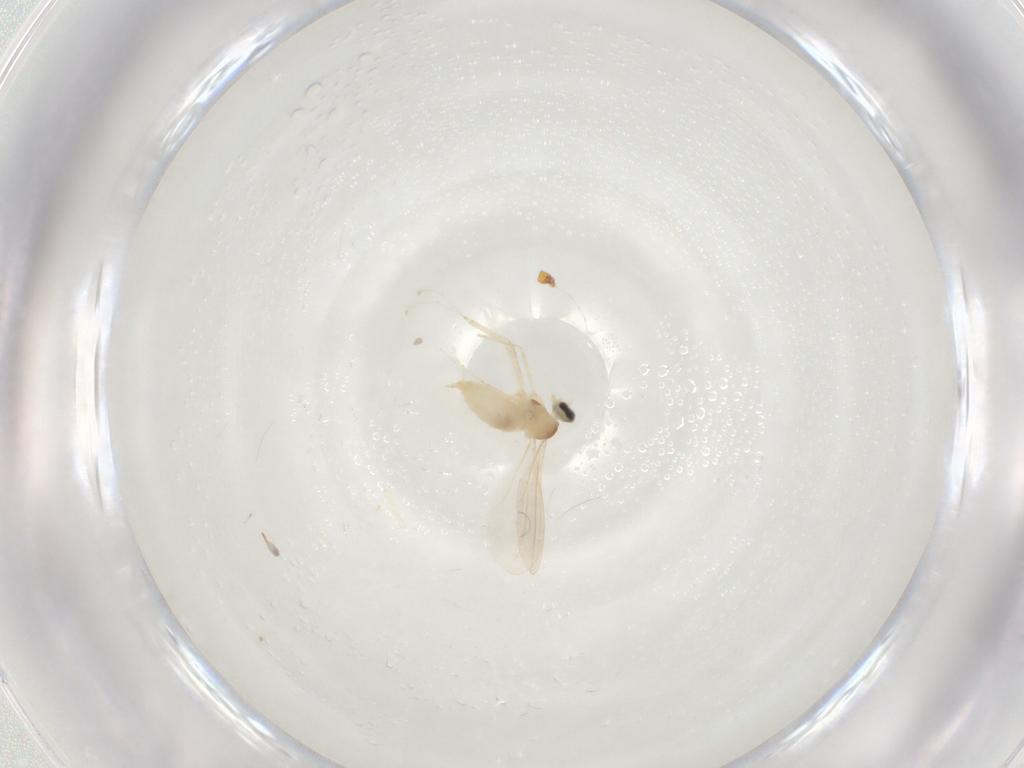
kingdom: Animalia
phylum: Arthropoda
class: Insecta
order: Diptera
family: Cecidomyiidae
